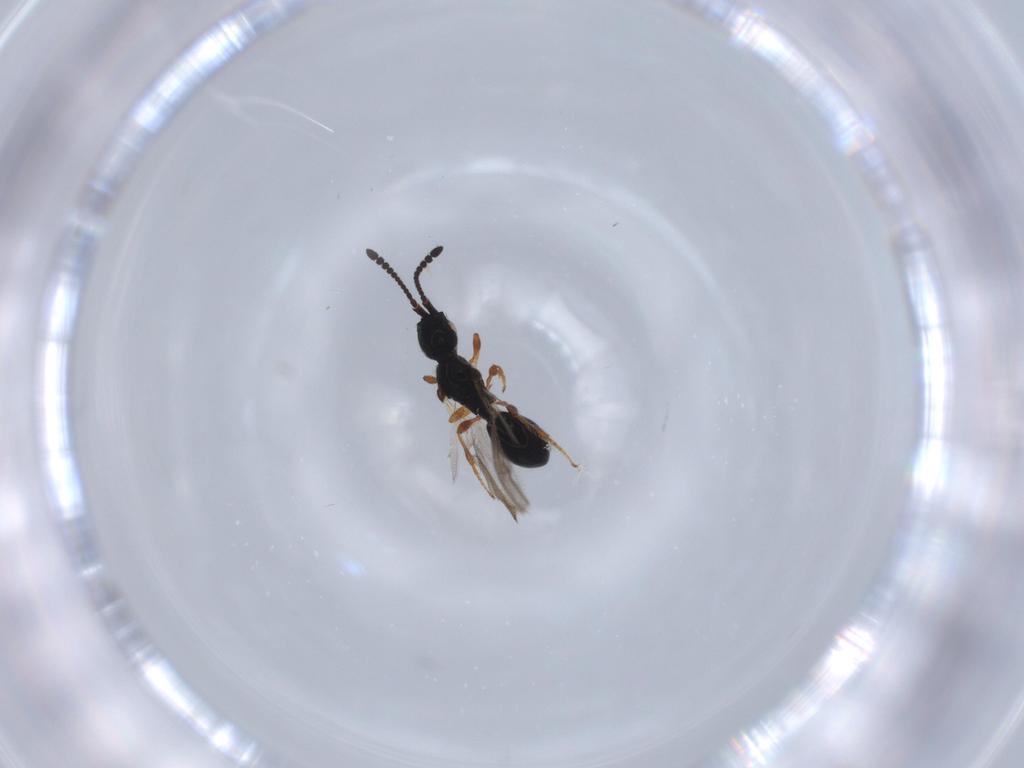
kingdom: Animalia
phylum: Arthropoda
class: Insecta
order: Hymenoptera
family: Diapriidae
